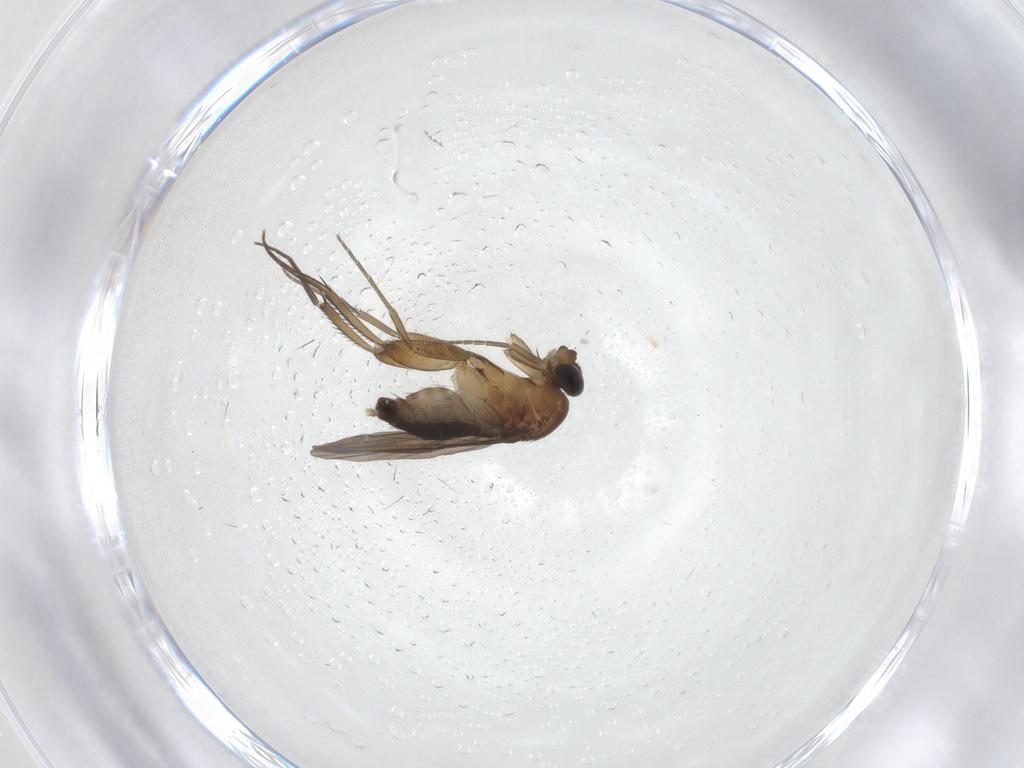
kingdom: Animalia
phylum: Arthropoda
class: Insecta
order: Diptera
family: Phoridae
